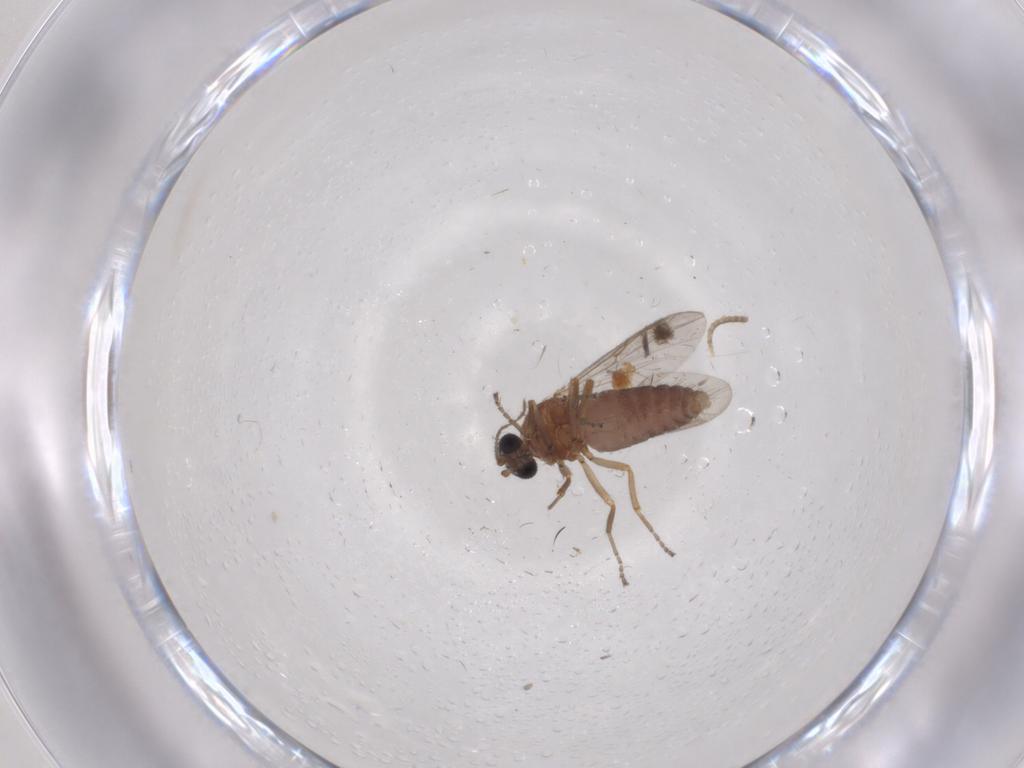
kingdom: Animalia
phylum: Arthropoda
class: Insecta
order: Diptera
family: Ceratopogonidae
